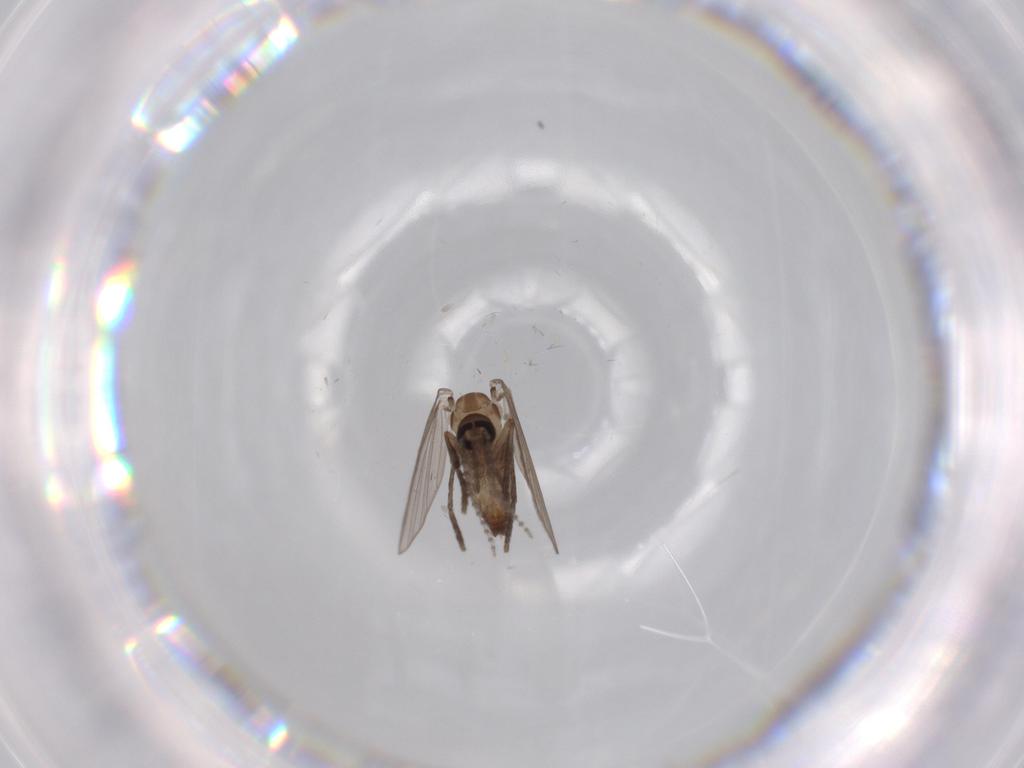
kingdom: Animalia
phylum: Arthropoda
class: Insecta
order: Diptera
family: Psychodidae
